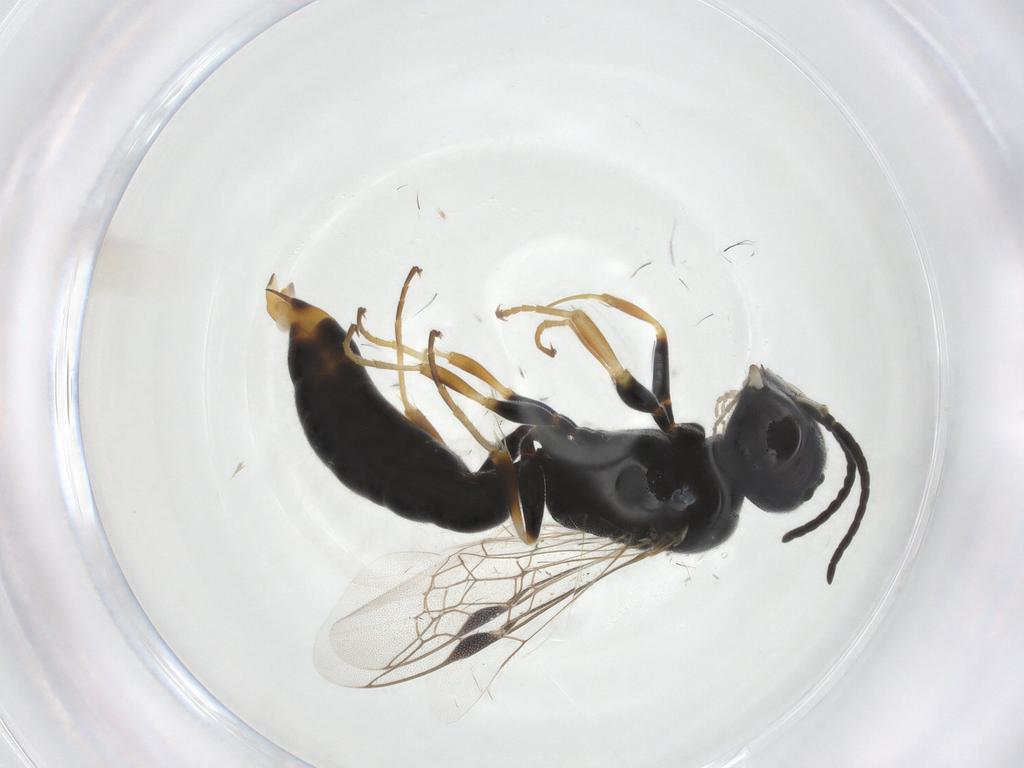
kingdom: Animalia
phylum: Arthropoda
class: Insecta
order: Hymenoptera
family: Pemphredonidae
